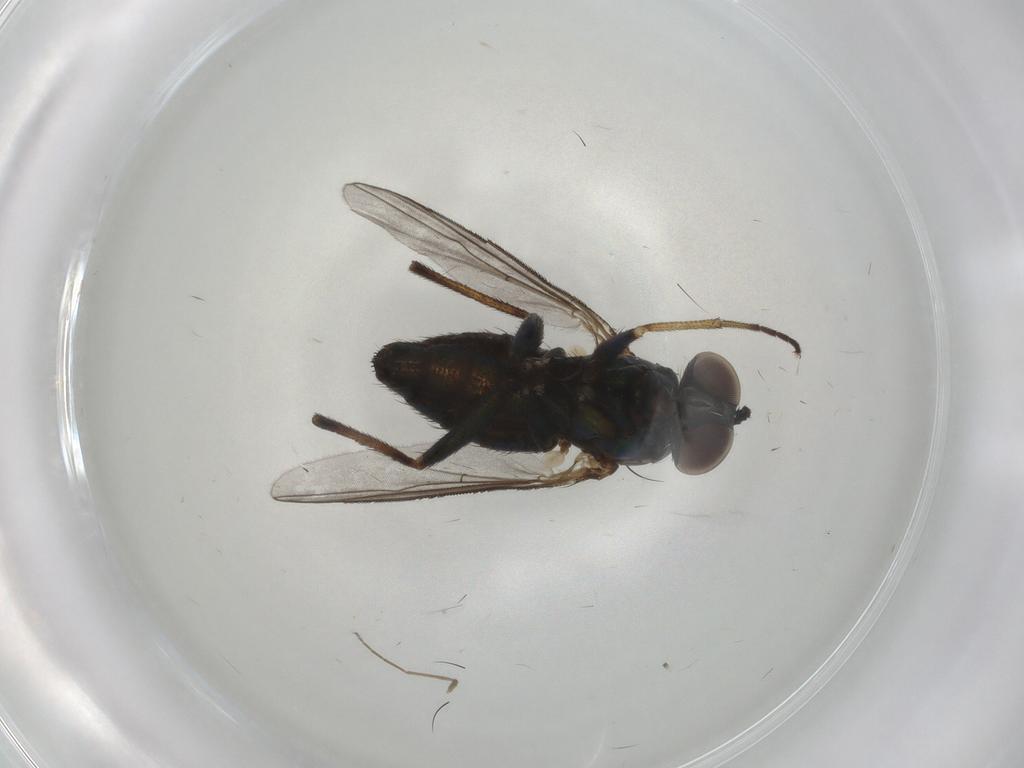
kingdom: Animalia
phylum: Arthropoda
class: Insecta
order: Diptera
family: Dolichopodidae
